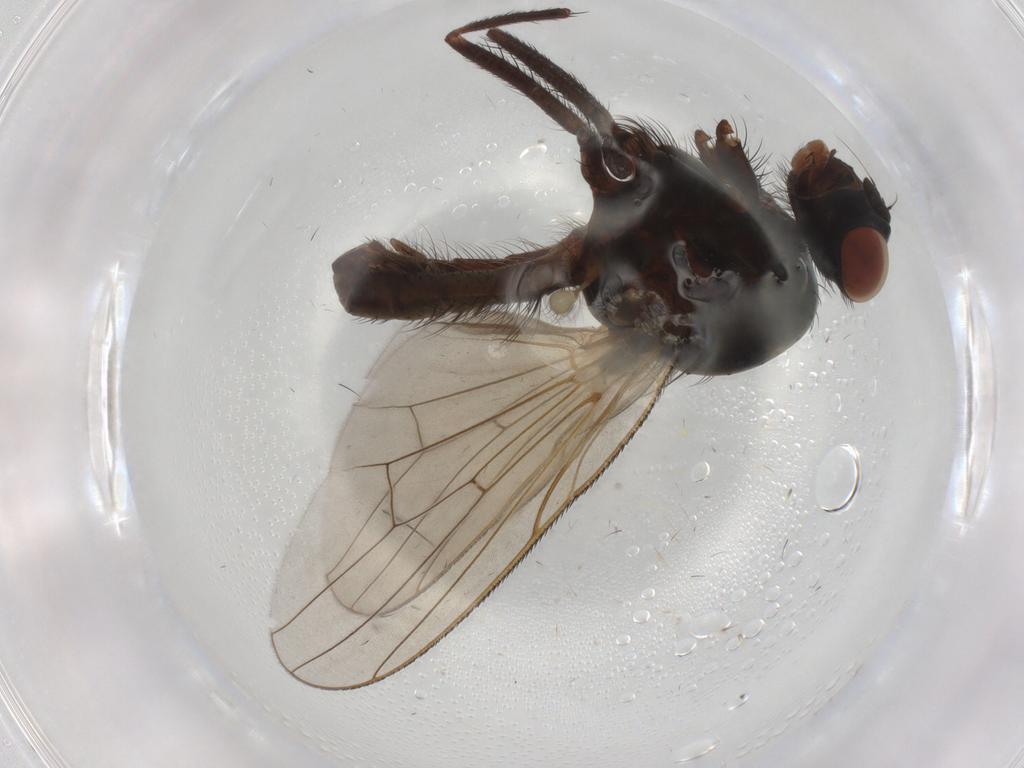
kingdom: Animalia
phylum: Arthropoda
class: Insecta
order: Diptera
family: Anthomyiidae
